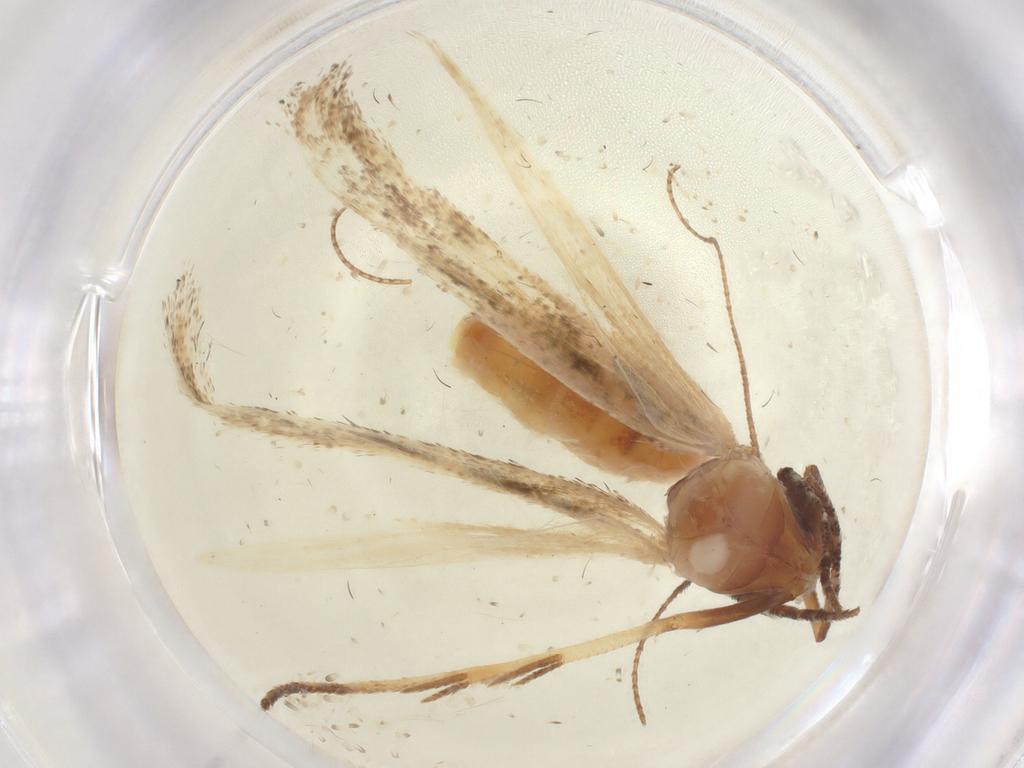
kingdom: Animalia
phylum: Arthropoda
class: Insecta
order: Lepidoptera
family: Cosmopterigidae
